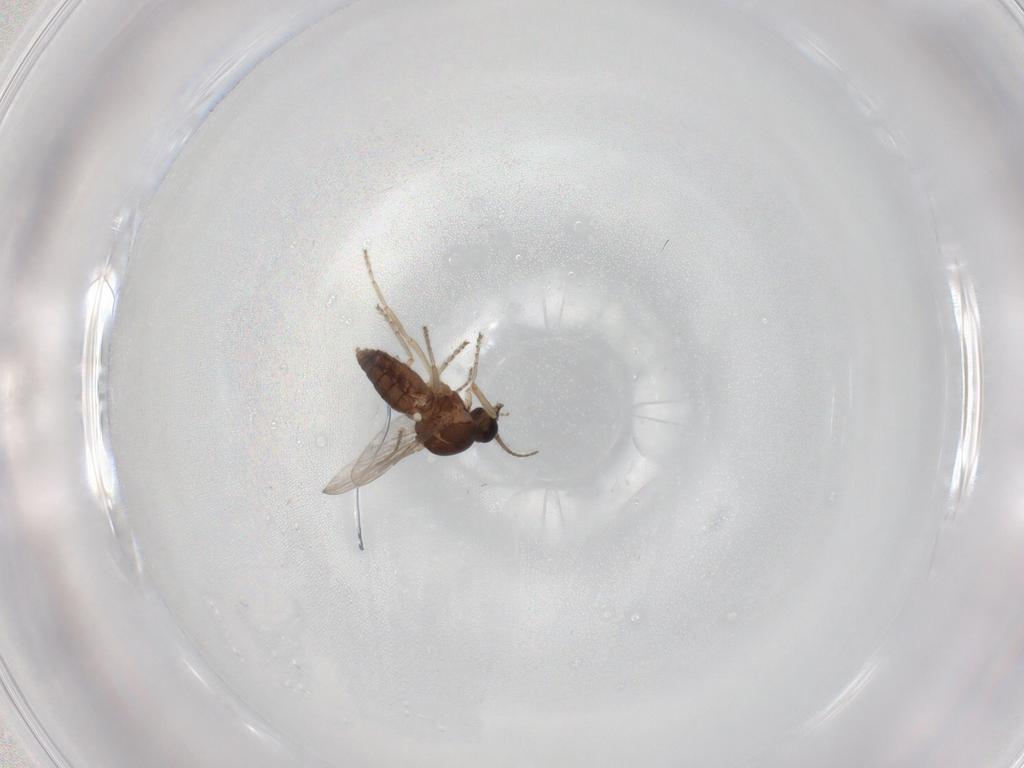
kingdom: Animalia
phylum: Arthropoda
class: Insecta
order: Diptera
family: Ceratopogonidae
